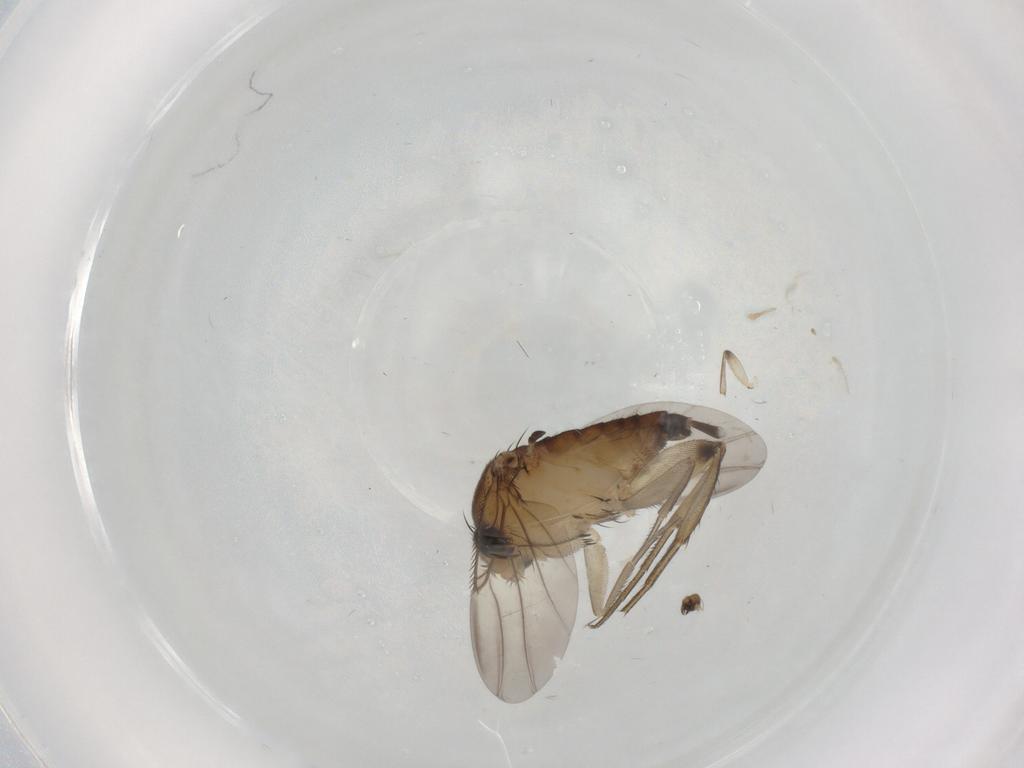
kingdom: Animalia
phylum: Arthropoda
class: Insecta
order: Diptera
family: Phoridae
